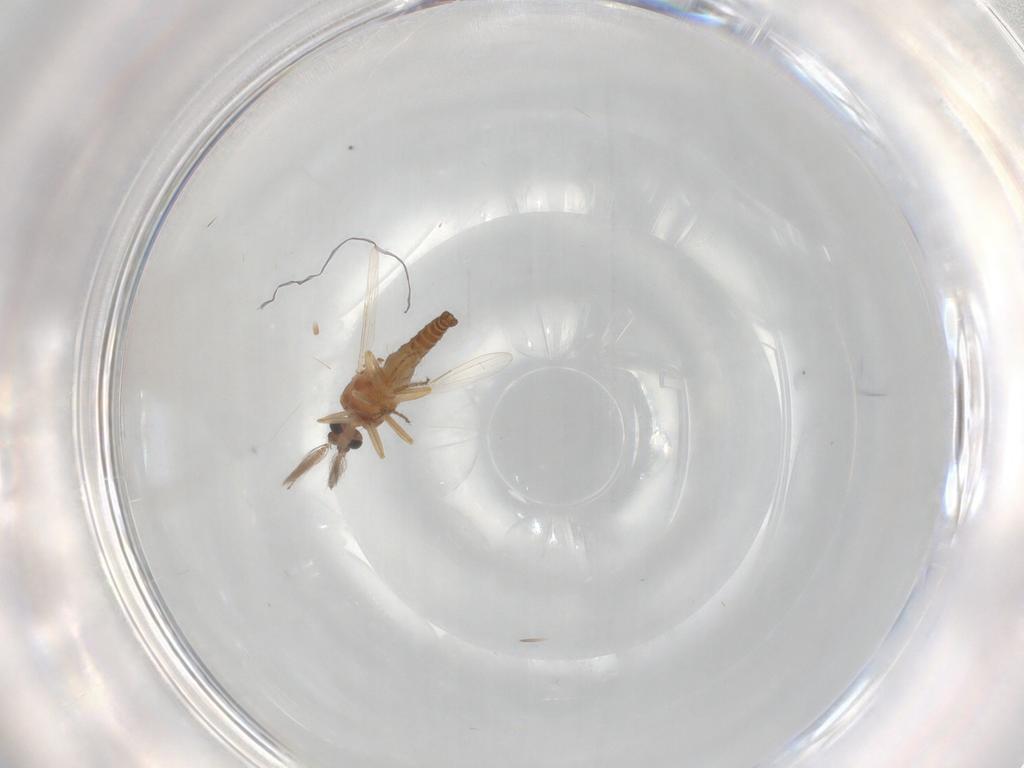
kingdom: Animalia
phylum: Arthropoda
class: Insecta
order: Diptera
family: Ceratopogonidae
